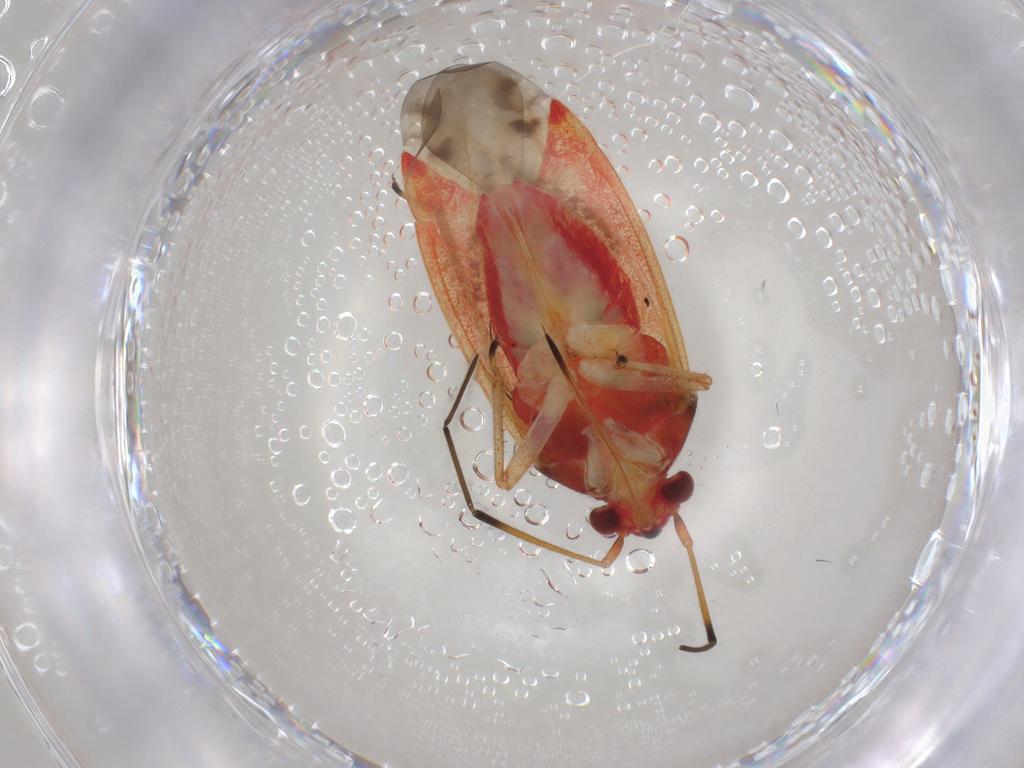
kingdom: Animalia
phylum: Arthropoda
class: Insecta
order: Hemiptera
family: Miridae
